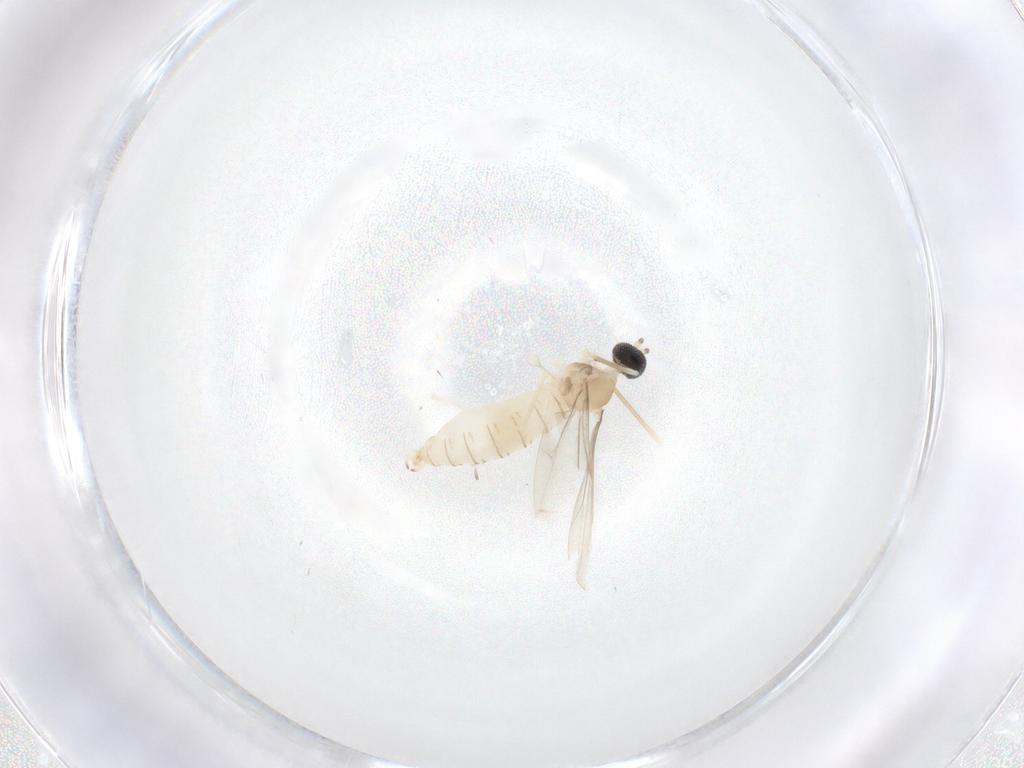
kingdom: Animalia
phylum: Arthropoda
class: Insecta
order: Diptera
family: Cecidomyiidae
